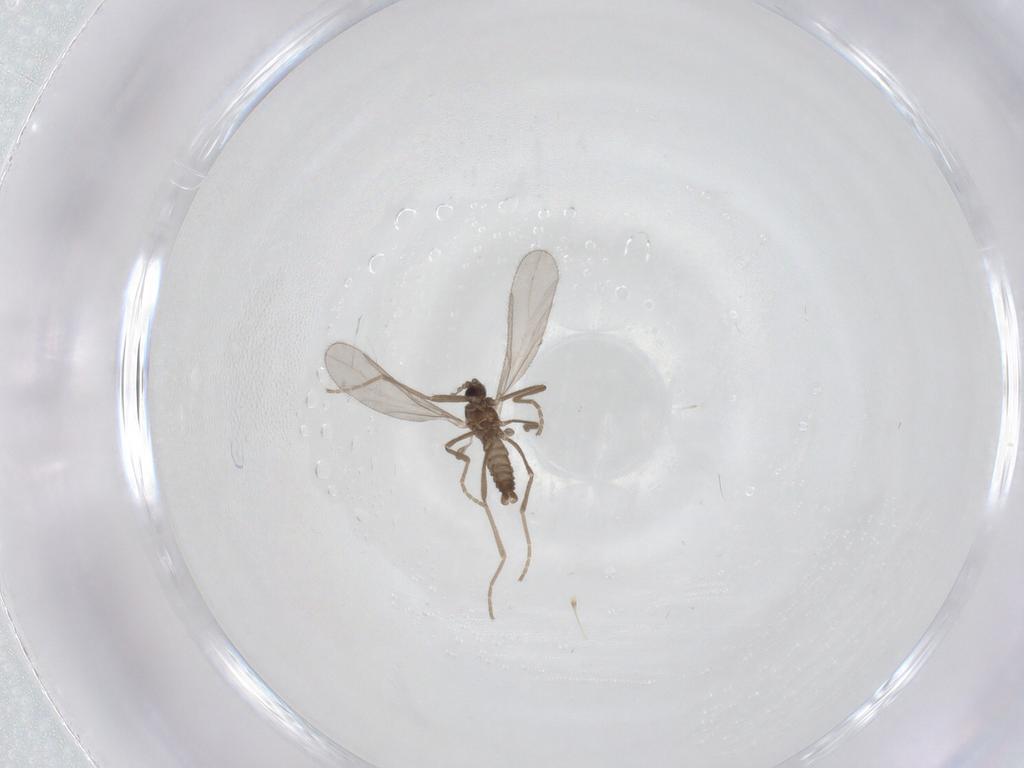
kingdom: Animalia
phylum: Arthropoda
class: Insecta
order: Diptera
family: Cecidomyiidae
